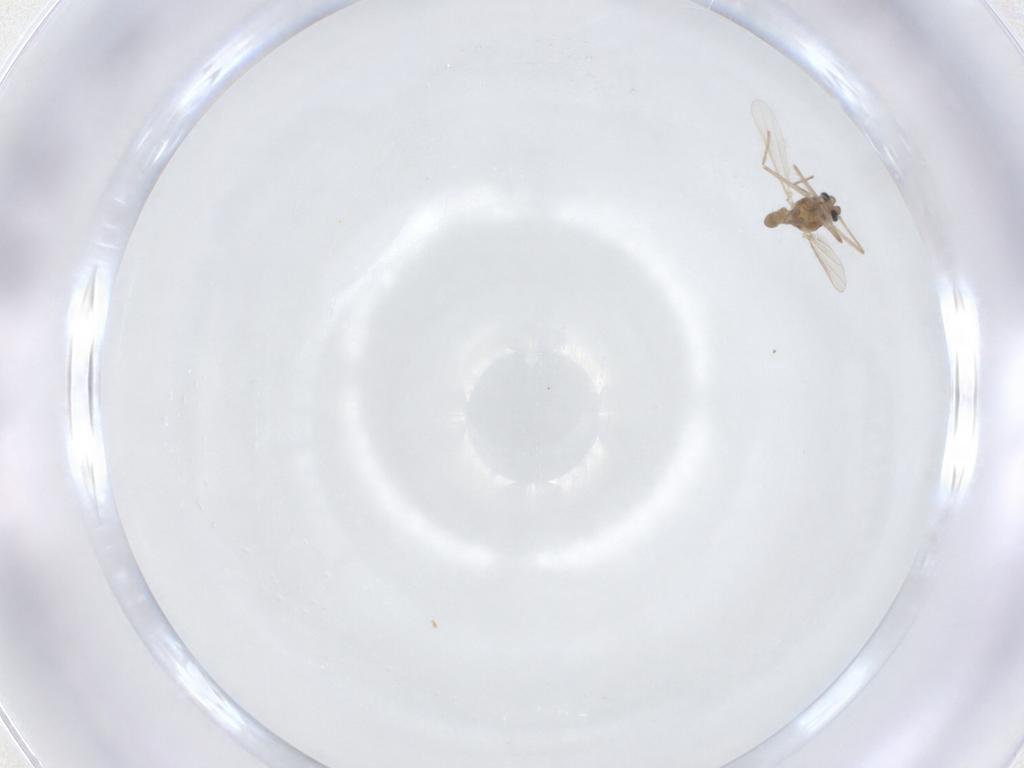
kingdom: Animalia
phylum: Arthropoda
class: Insecta
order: Diptera
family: Chironomidae
